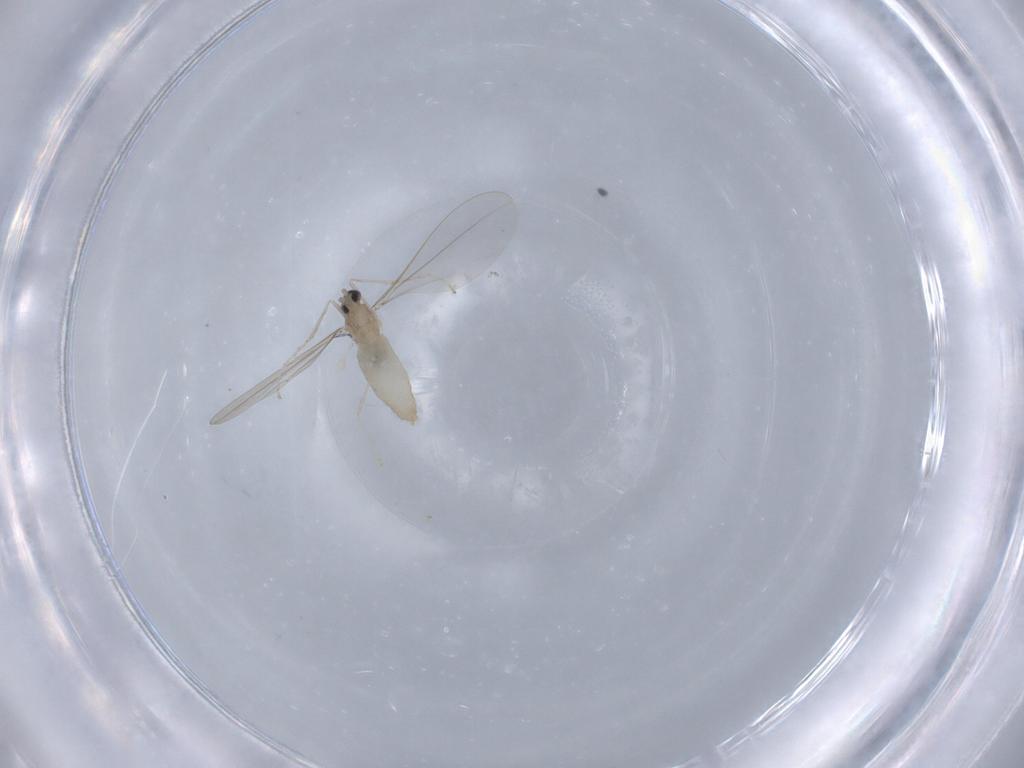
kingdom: Animalia
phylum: Arthropoda
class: Insecta
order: Diptera
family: Cecidomyiidae
